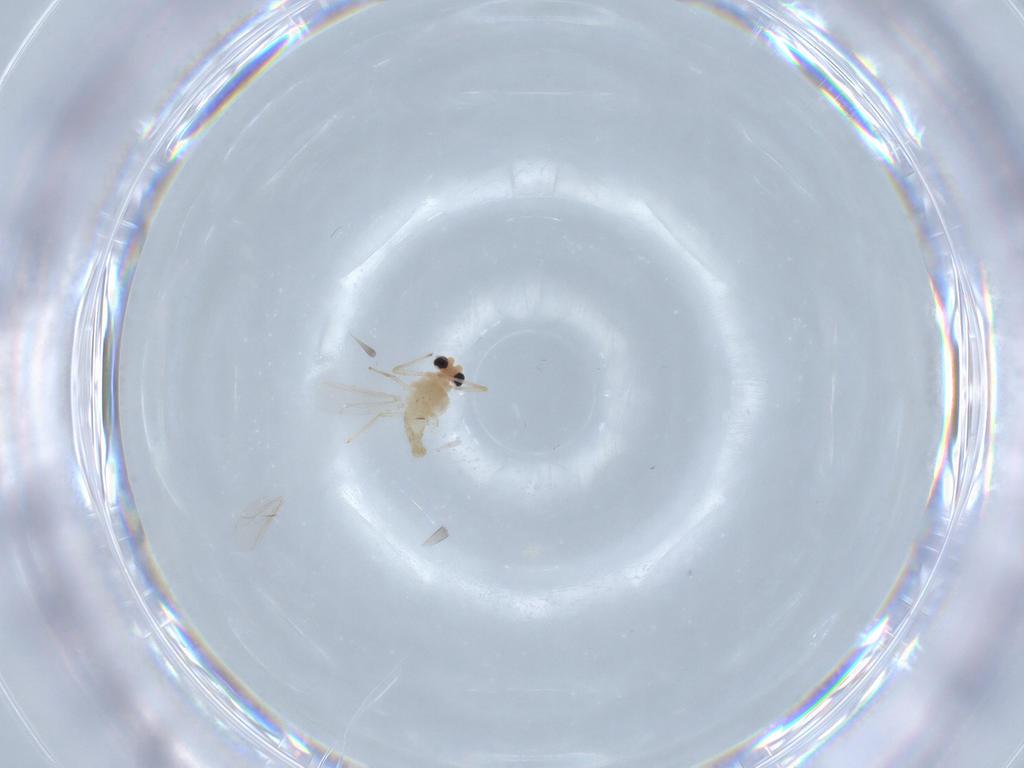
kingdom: Animalia
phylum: Arthropoda
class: Insecta
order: Diptera
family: Chironomidae
